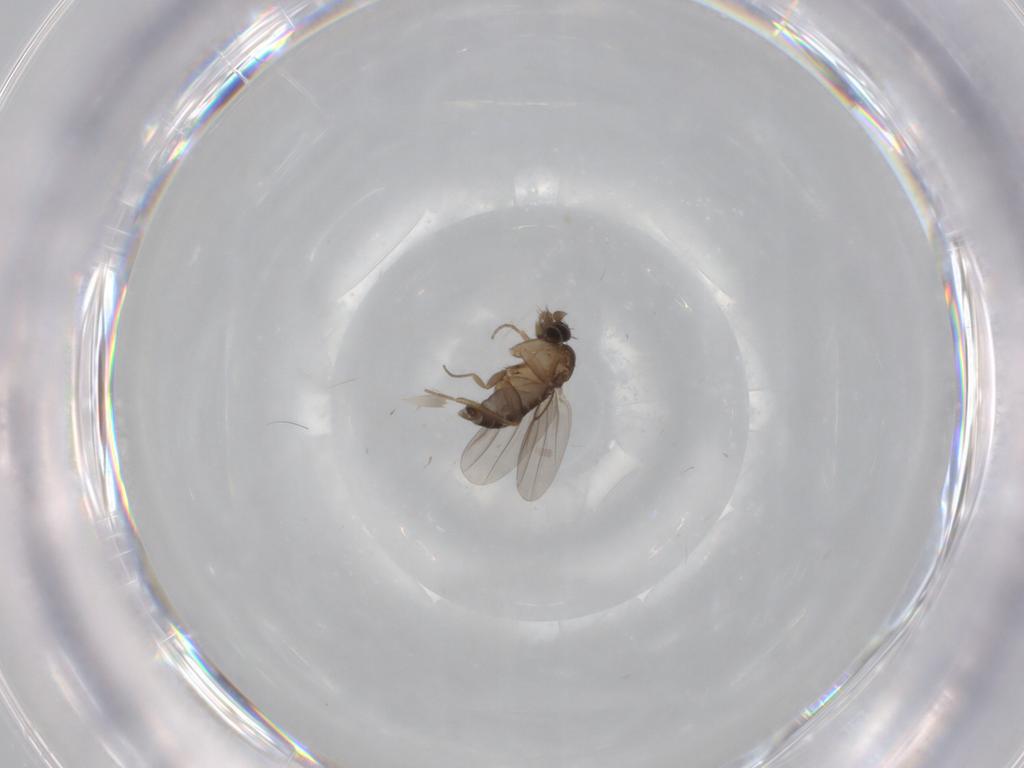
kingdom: Animalia
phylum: Arthropoda
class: Insecta
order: Diptera
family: Phoridae
